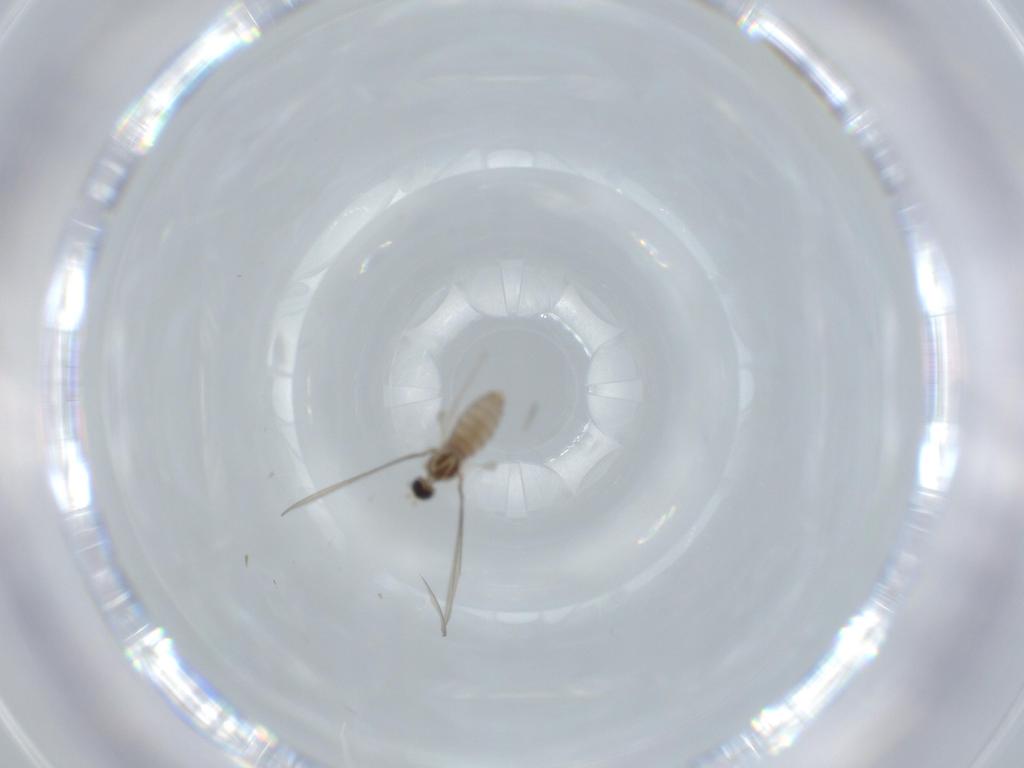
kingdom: Animalia
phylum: Arthropoda
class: Insecta
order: Diptera
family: Cecidomyiidae
